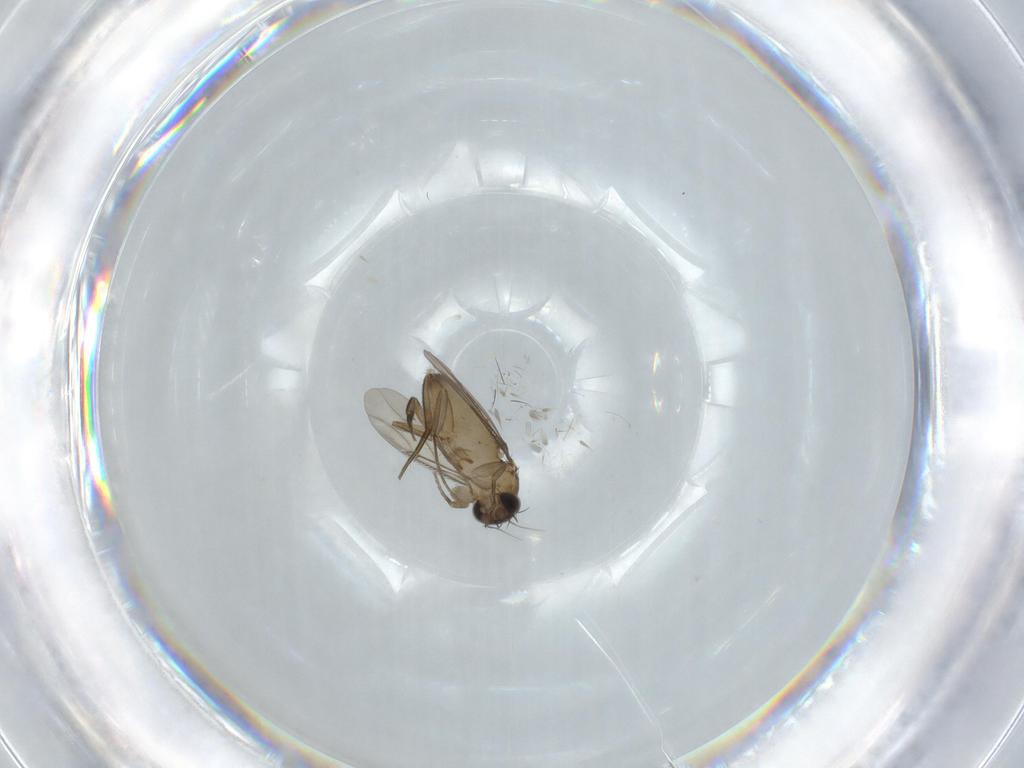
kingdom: Animalia
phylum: Arthropoda
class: Insecta
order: Diptera
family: Phoridae
